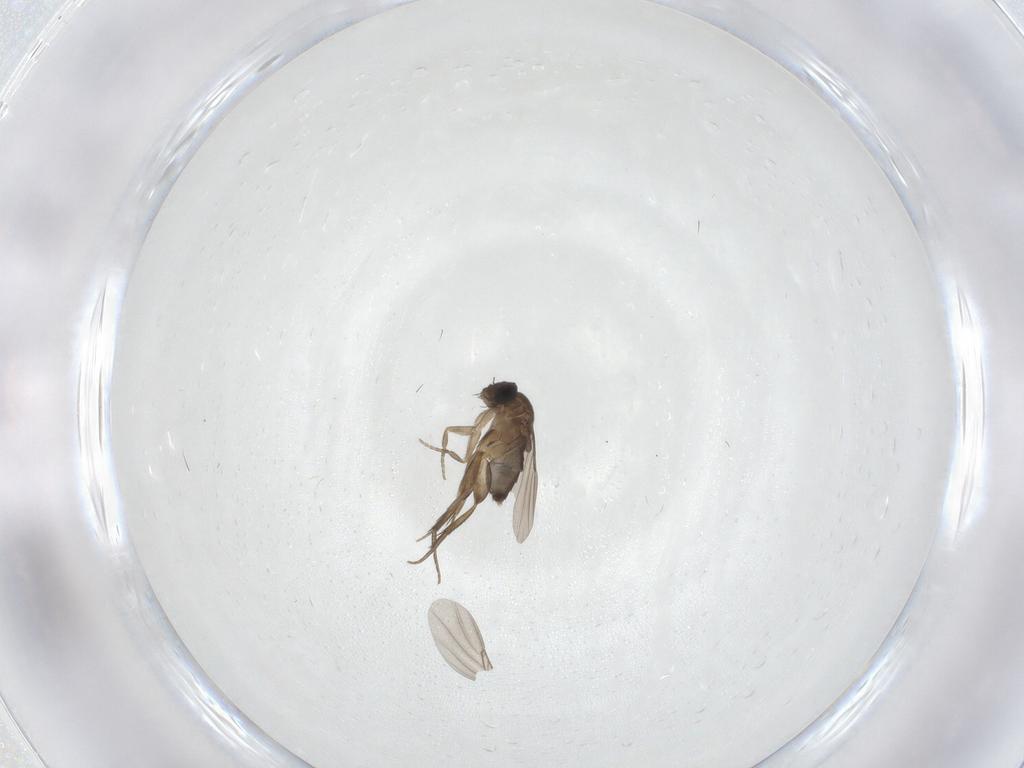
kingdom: Animalia
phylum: Arthropoda
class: Insecta
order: Diptera
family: Phoridae
